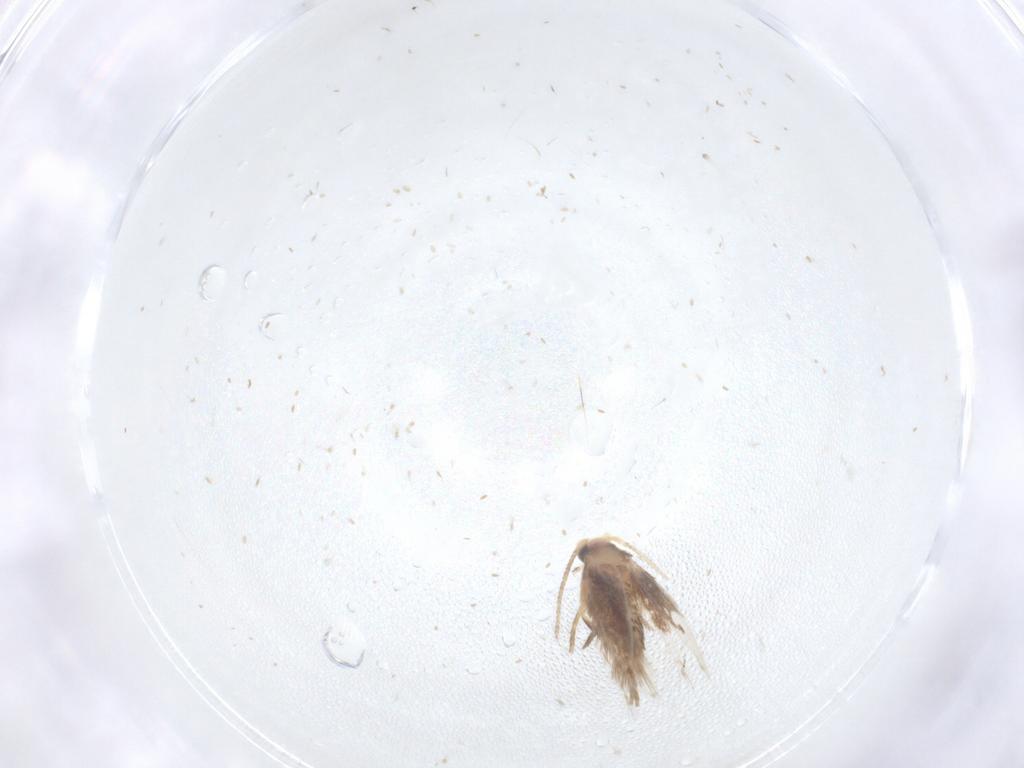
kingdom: Animalia
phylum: Arthropoda
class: Insecta
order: Lepidoptera
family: Nepticulidae
